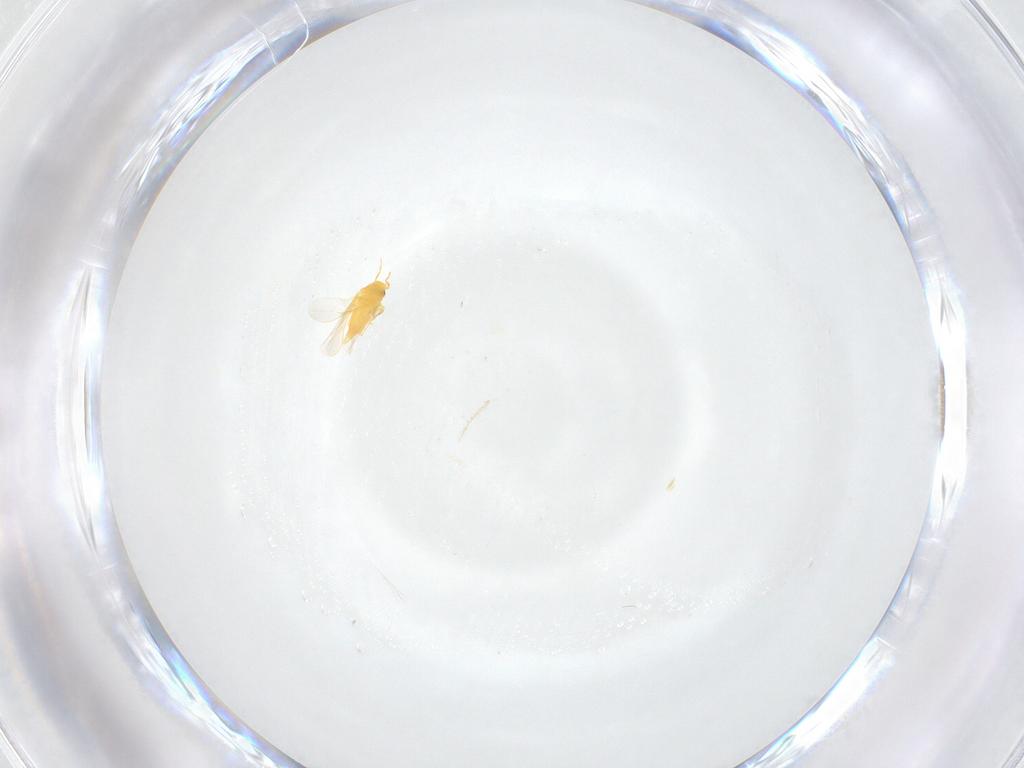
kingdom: Animalia
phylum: Arthropoda
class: Insecta
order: Hemiptera
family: Aleyrodidae
